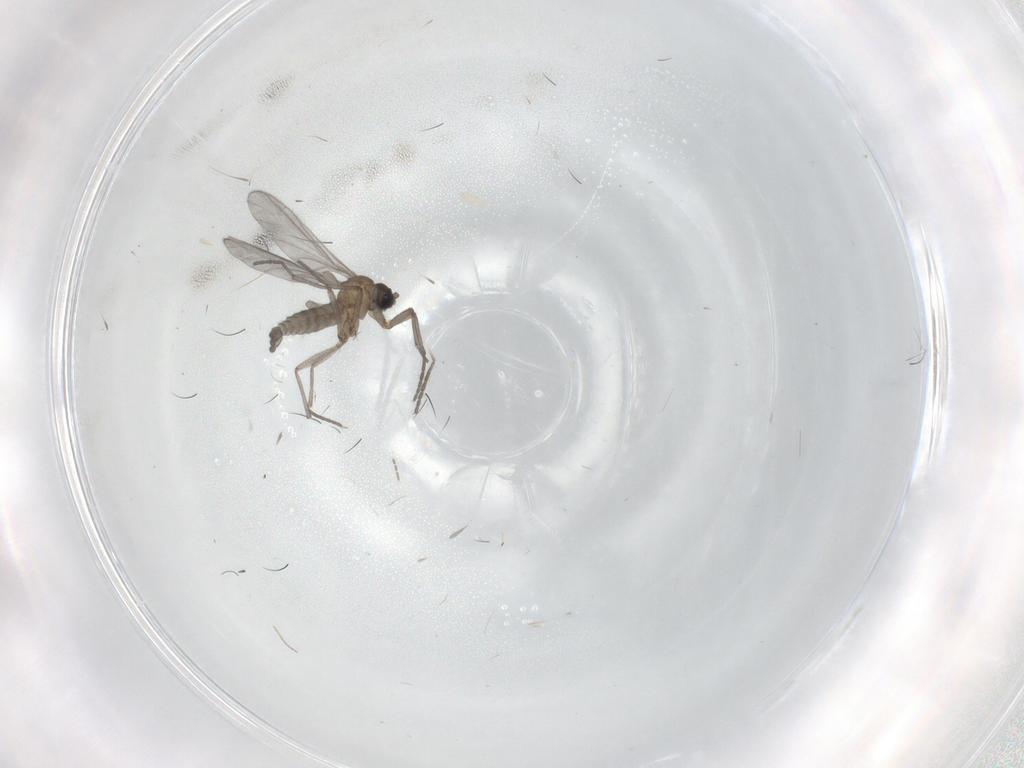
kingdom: Animalia
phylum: Arthropoda
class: Insecta
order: Diptera
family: Sciaridae
